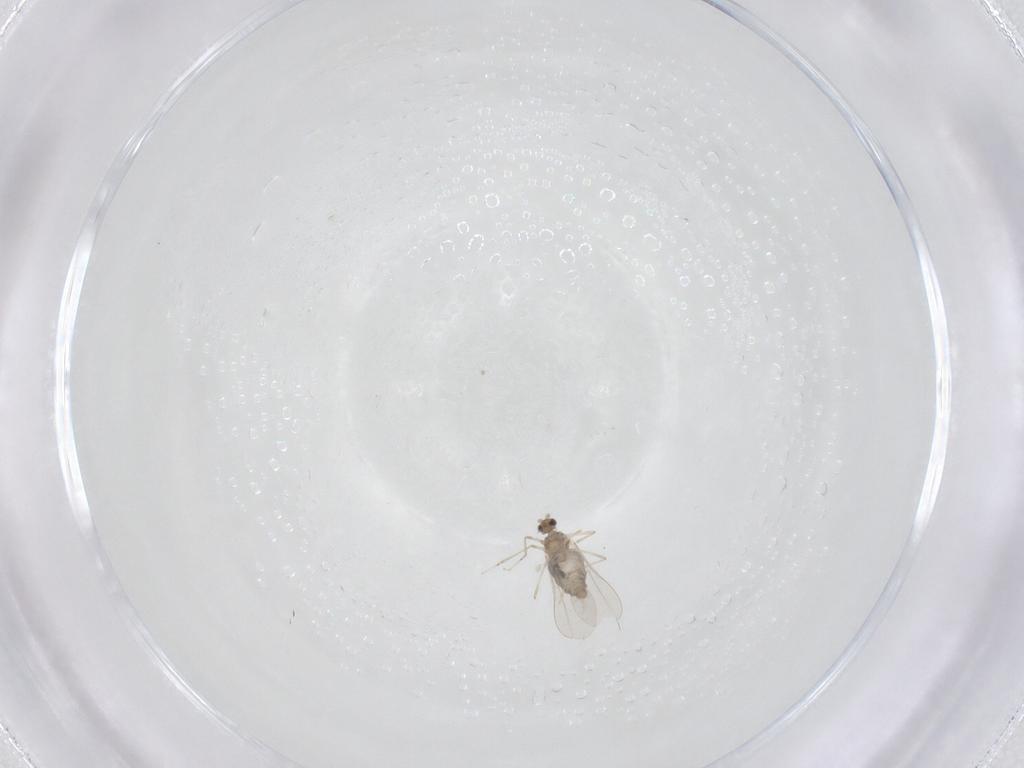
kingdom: Animalia
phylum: Arthropoda
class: Insecta
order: Diptera
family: Cecidomyiidae
